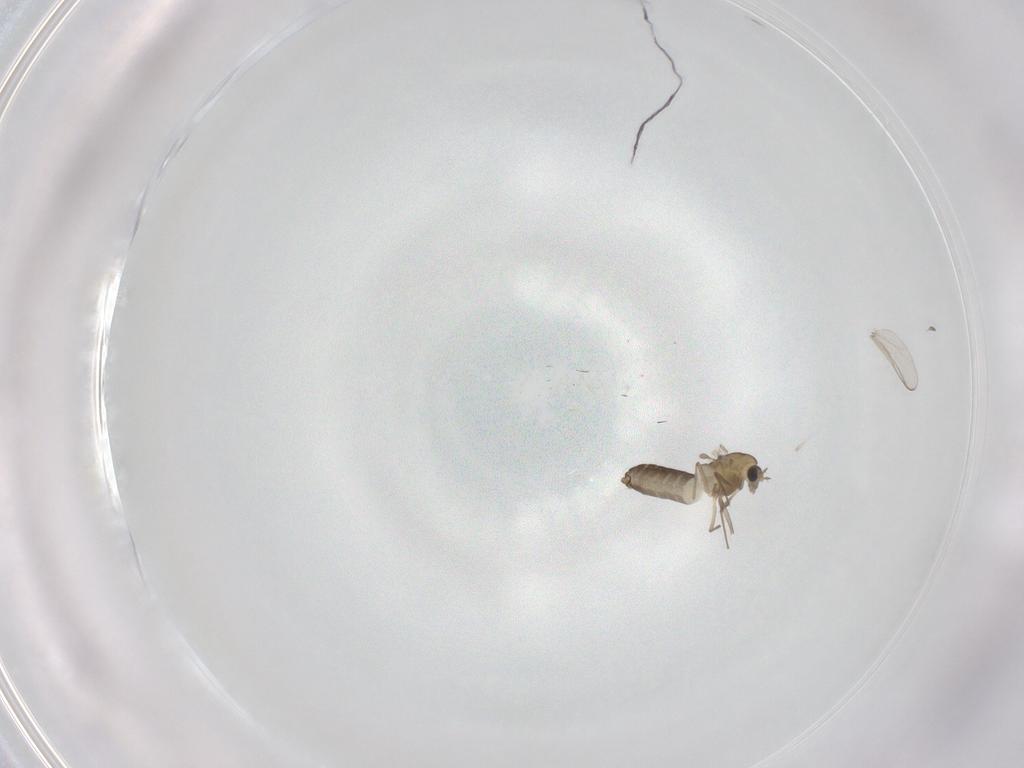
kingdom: Animalia
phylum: Arthropoda
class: Insecta
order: Diptera
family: Chironomidae
